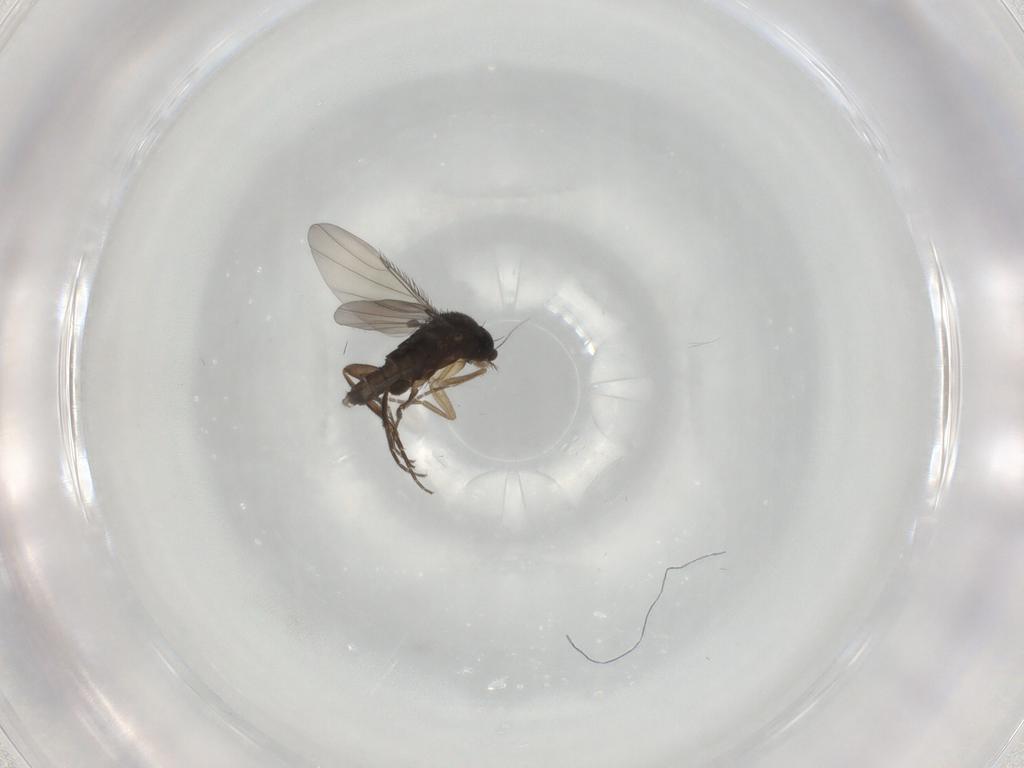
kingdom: Animalia
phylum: Arthropoda
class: Insecta
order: Diptera
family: Phoridae
